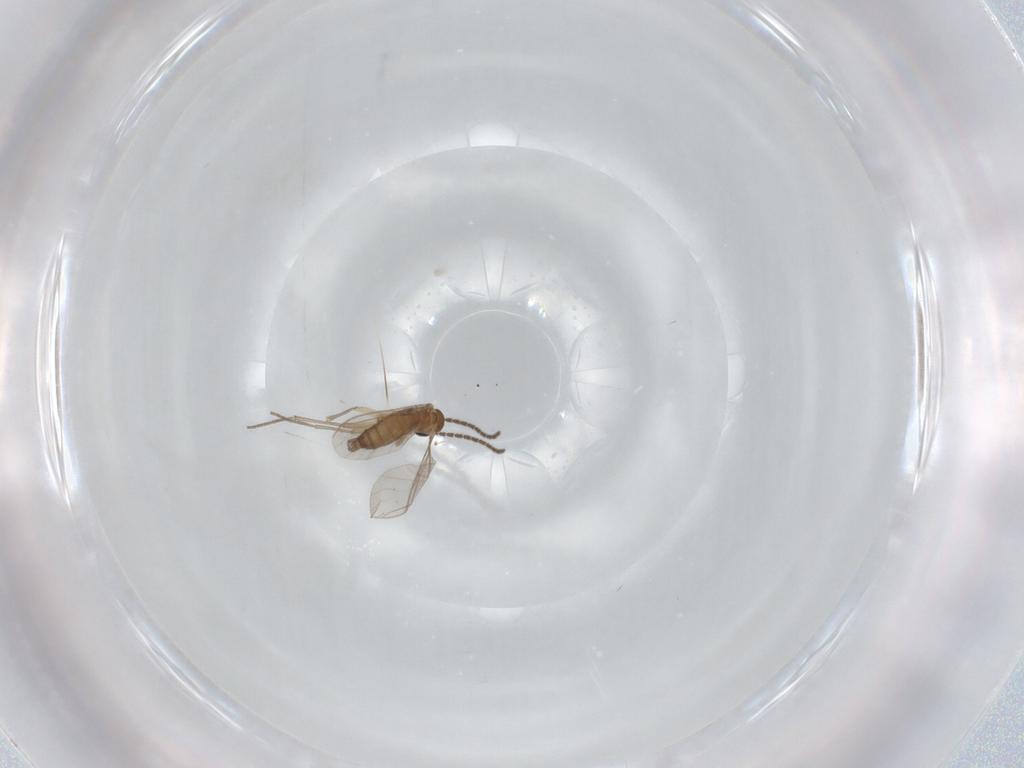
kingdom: Animalia
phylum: Arthropoda
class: Insecta
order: Diptera
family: Sciaridae
